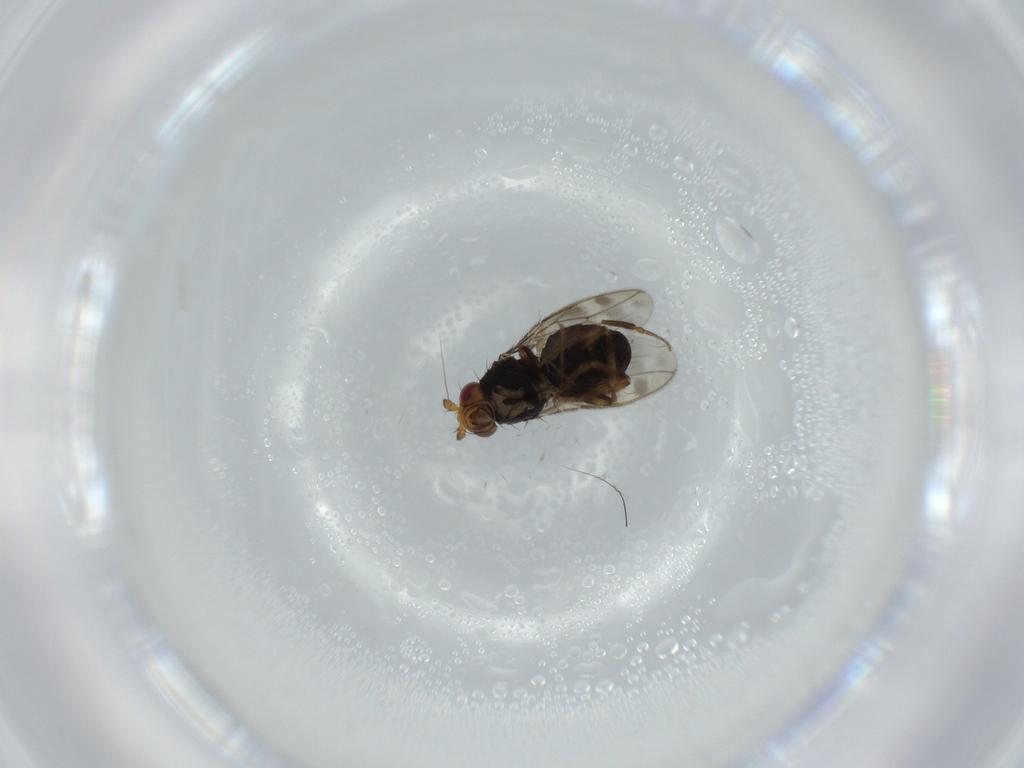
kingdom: Animalia
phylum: Arthropoda
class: Insecta
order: Diptera
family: Sphaeroceridae
